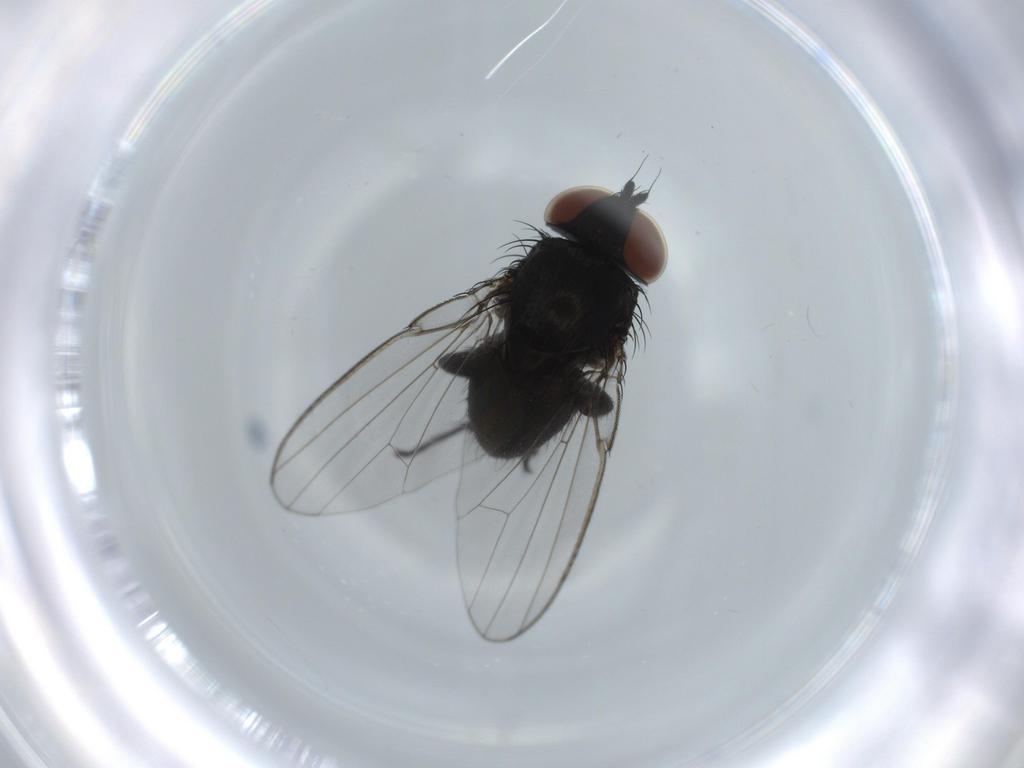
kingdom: Animalia
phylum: Arthropoda
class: Insecta
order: Diptera
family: Milichiidae
